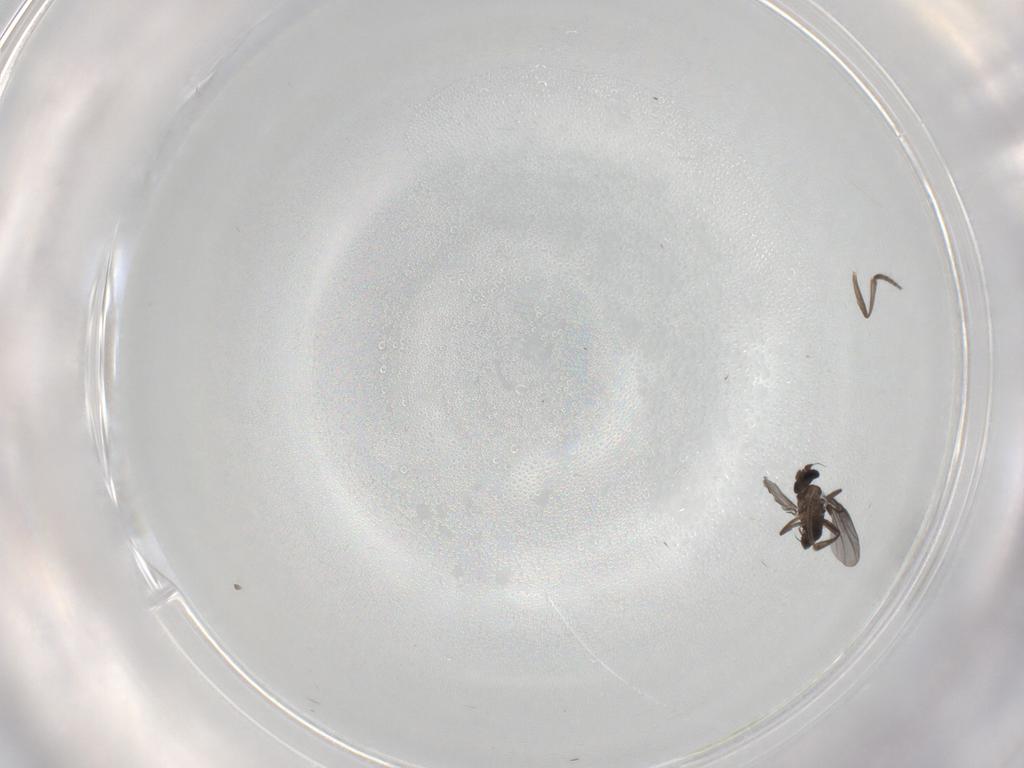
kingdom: Animalia
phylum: Arthropoda
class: Insecta
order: Diptera
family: Phoridae
